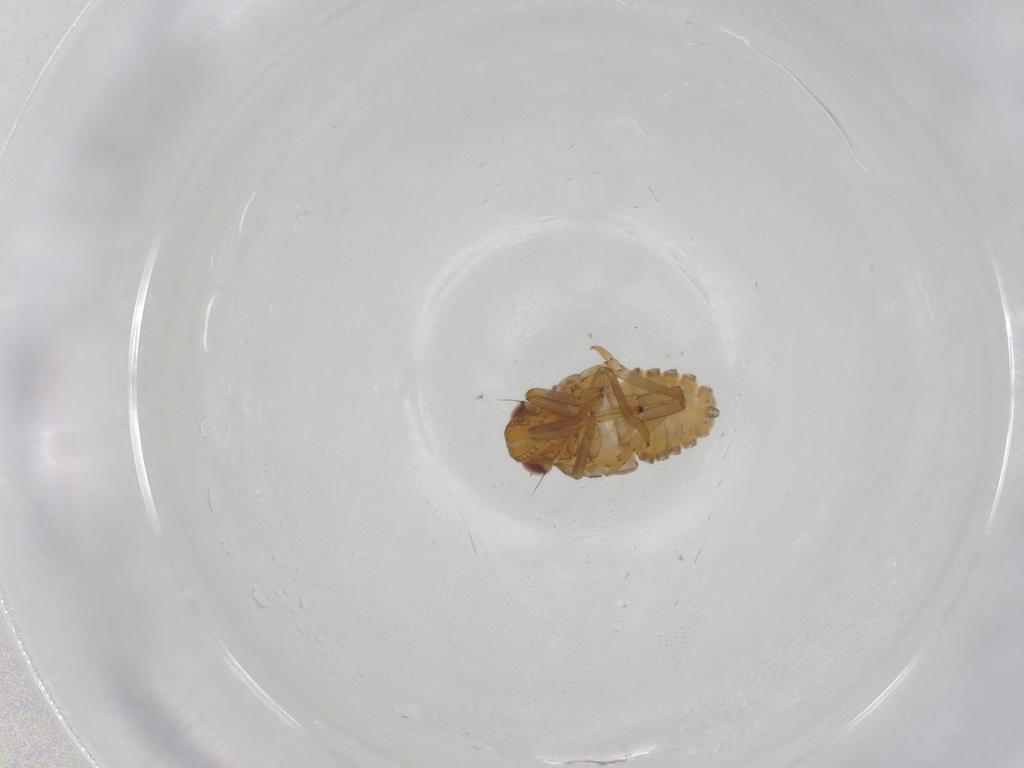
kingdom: Animalia
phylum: Arthropoda
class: Insecta
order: Hemiptera
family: Issidae
